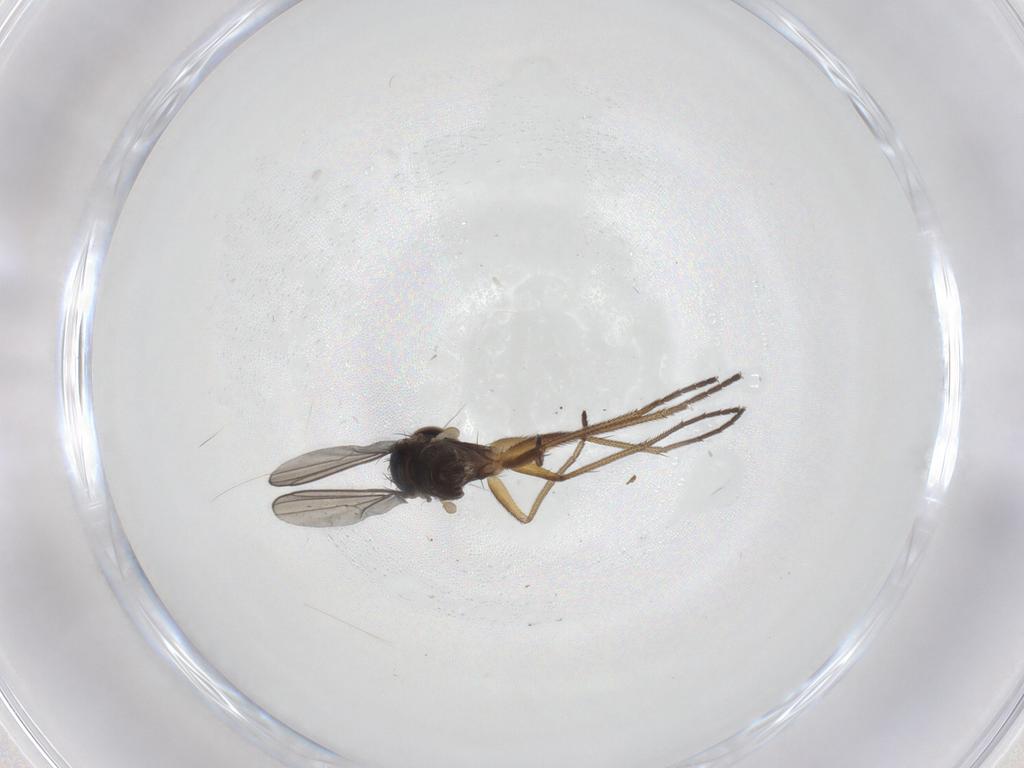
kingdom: Animalia
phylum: Arthropoda
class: Insecta
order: Diptera
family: Dolichopodidae
